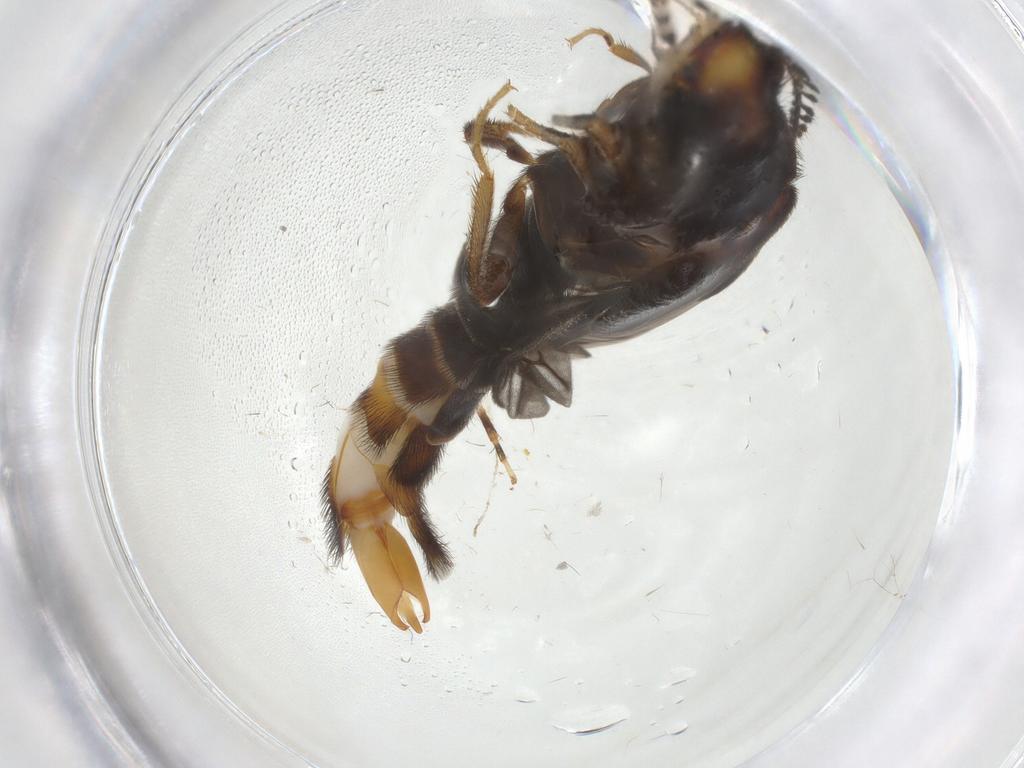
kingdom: Animalia
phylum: Arthropoda
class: Insecta
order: Coleoptera
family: Phengodidae
